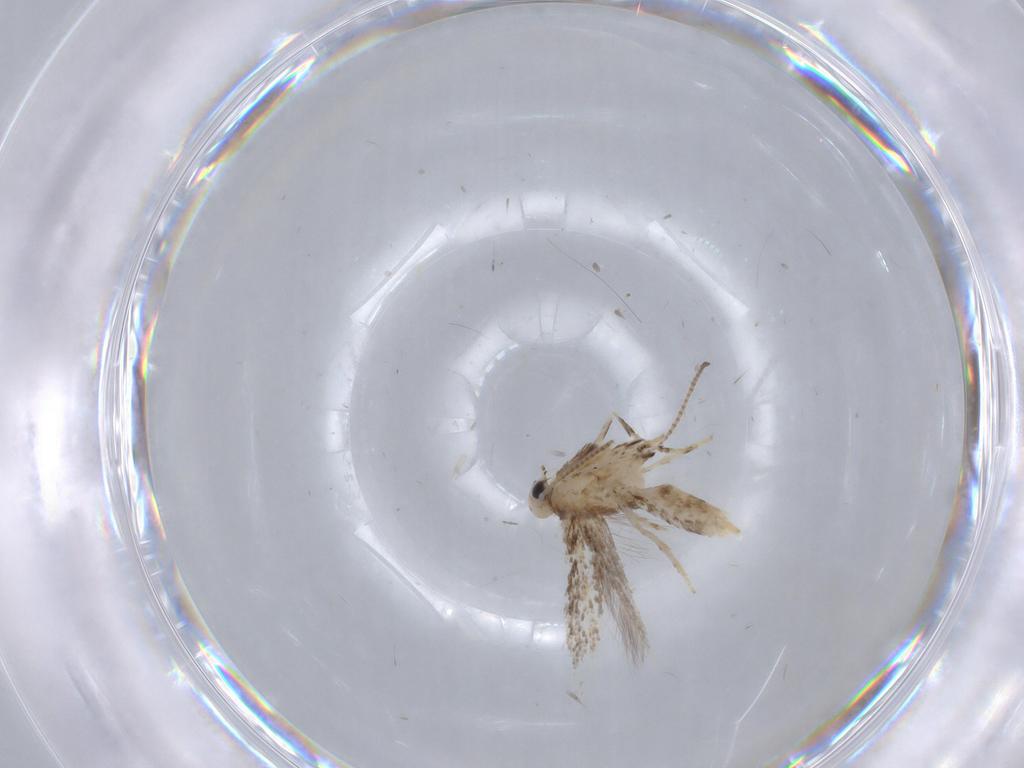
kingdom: Animalia
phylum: Arthropoda
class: Insecta
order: Lepidoptera
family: Gracillariidae
